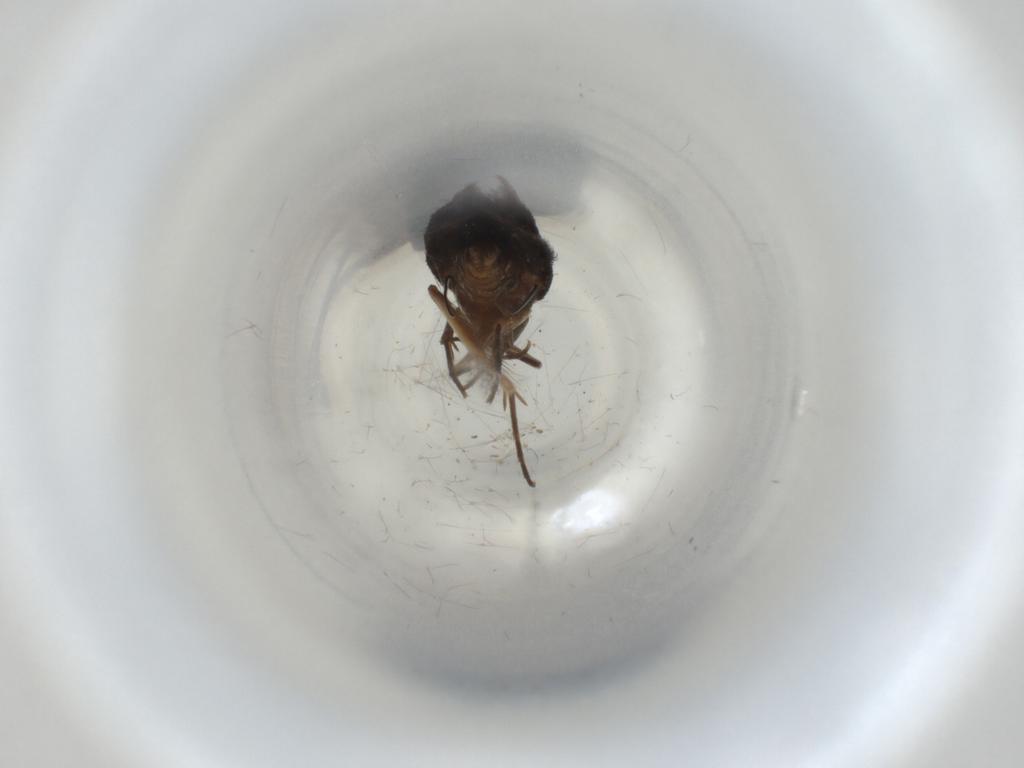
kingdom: Animalia
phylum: Arthropoda
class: Insecta
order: Lepidoptera
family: Scythrididae
